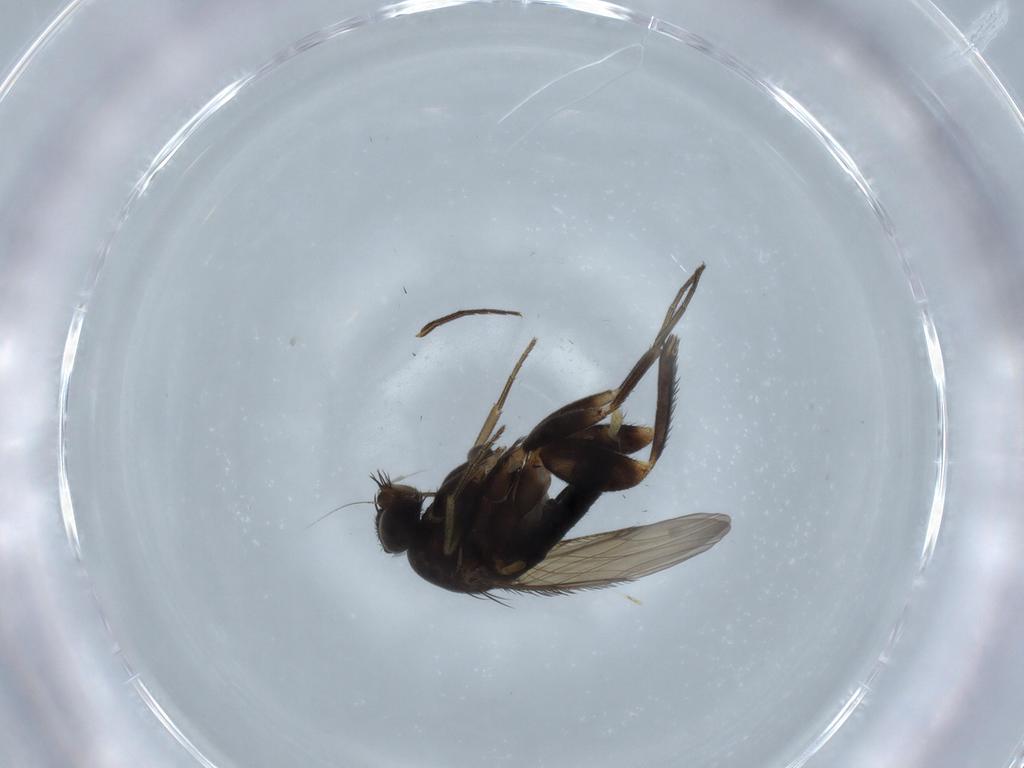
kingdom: Animalia
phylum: Arthropoda
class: Insecta
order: Diptera
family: Phoridae
